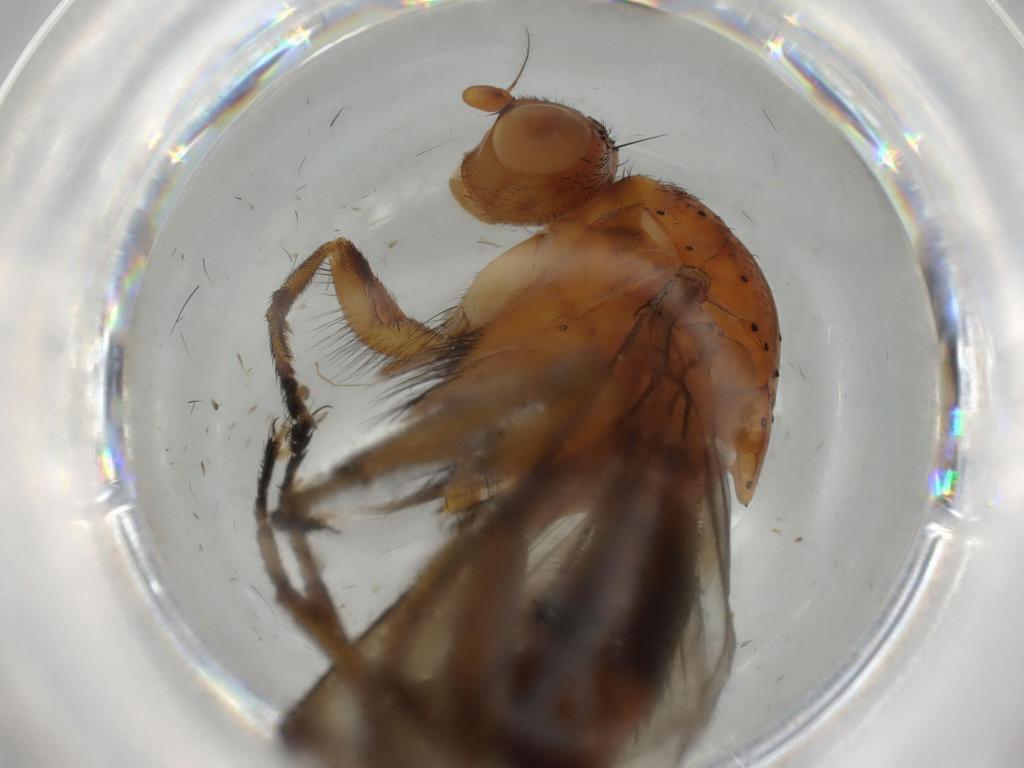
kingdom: Animalia
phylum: Arthropoda
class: Insecta
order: Diptera
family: Heleomyzidae
